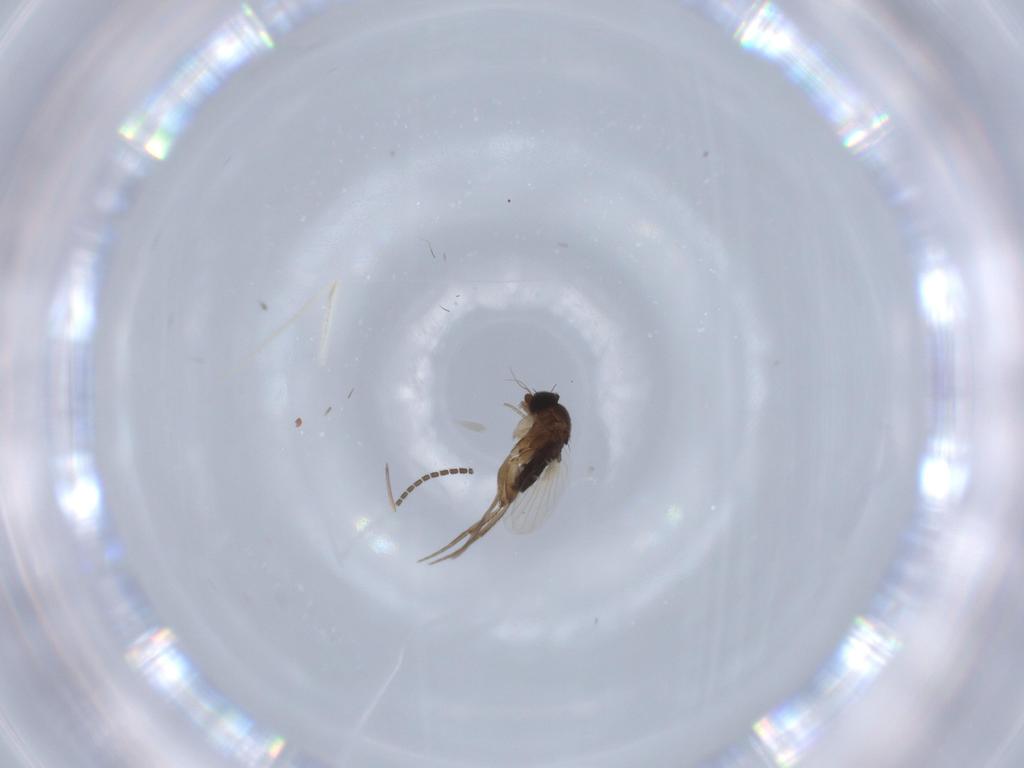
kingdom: Animalia
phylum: Arthropoda
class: Insecta
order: Diptera
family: Phoridae
